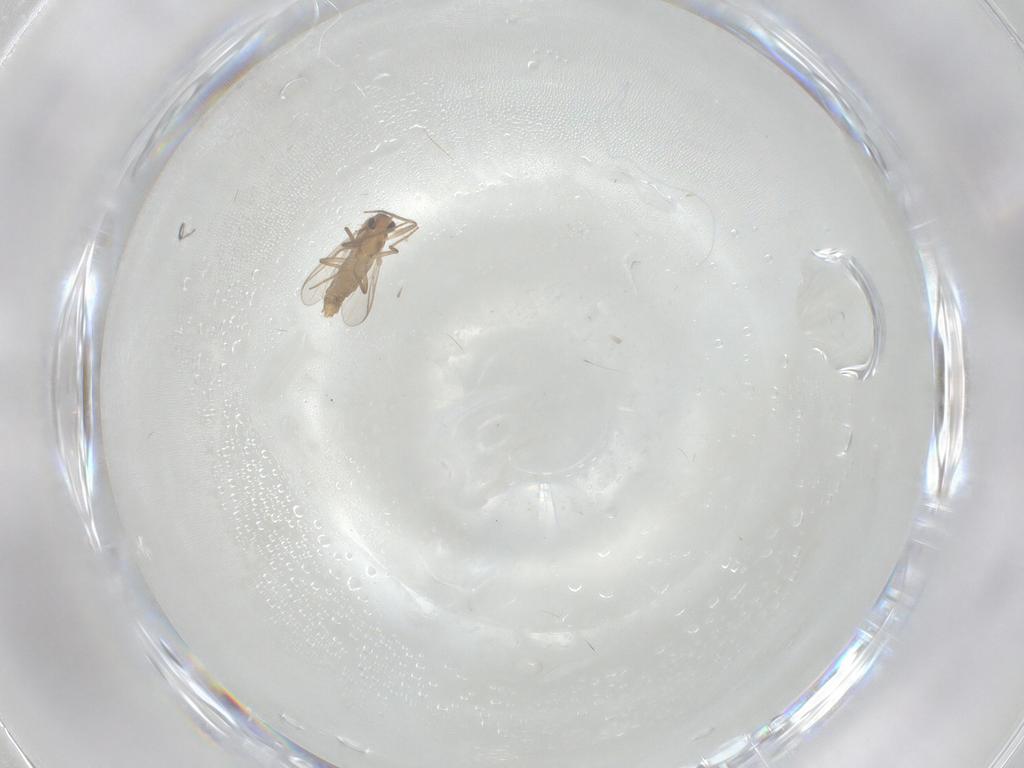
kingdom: Animalia
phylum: Arthropoda
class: Insecta
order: Diptera
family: Chironomidae
